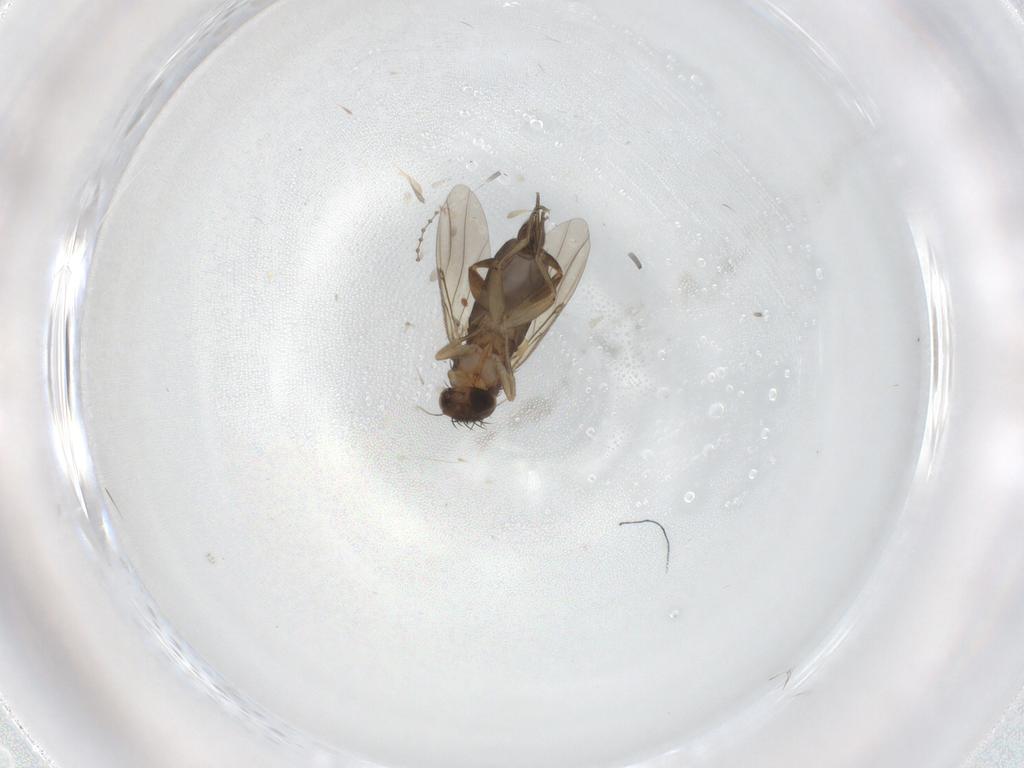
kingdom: Animalia
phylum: Arthropoda
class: Insecta
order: Diptera
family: Phoridae
